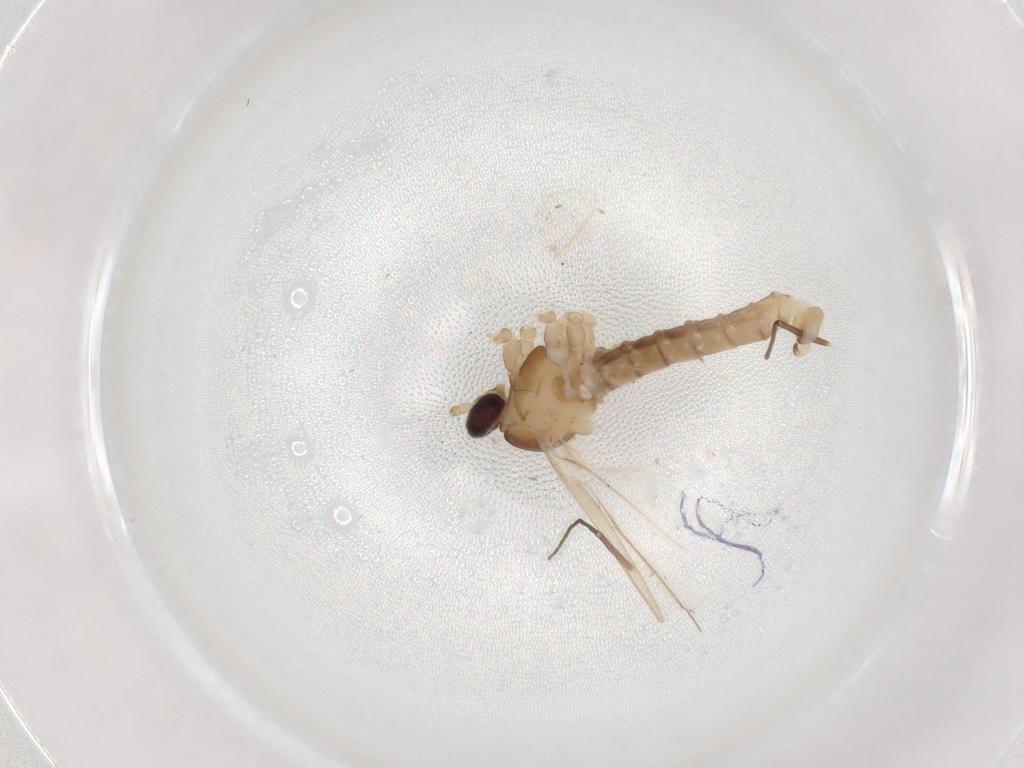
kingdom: Animalia
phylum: Arthropoda
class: Insecta
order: Diptera
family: Cecidomyiidae
